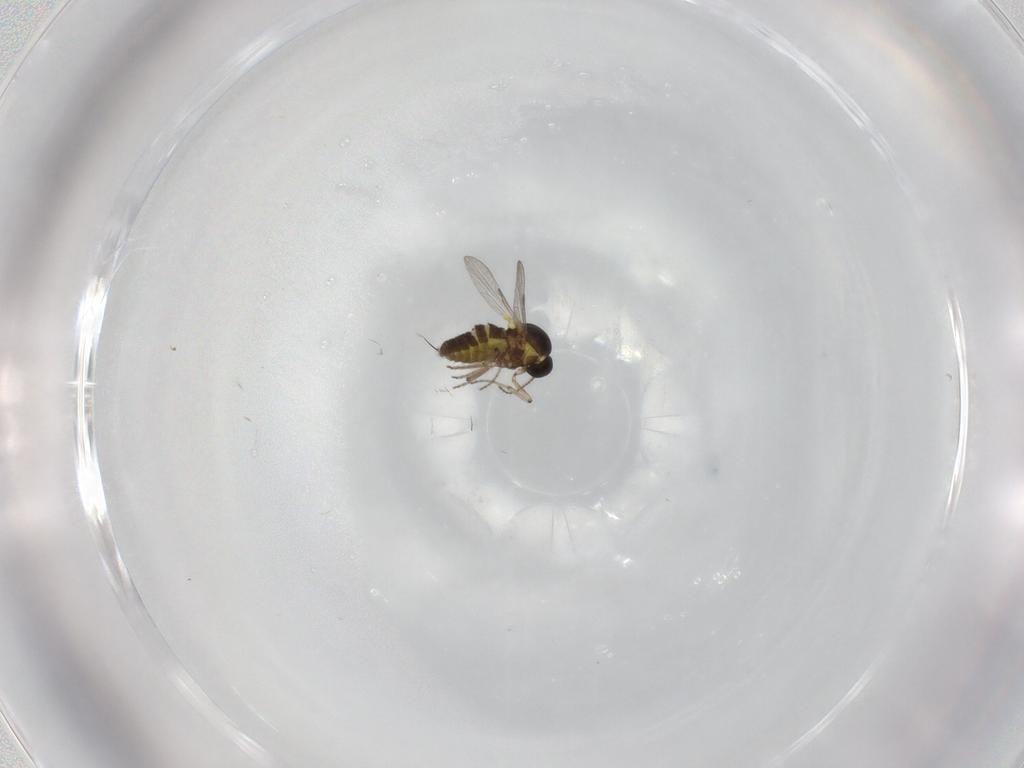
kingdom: Animalia
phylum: Arthropoda
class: Insecta
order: Diptera
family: Ceratopogonidae
